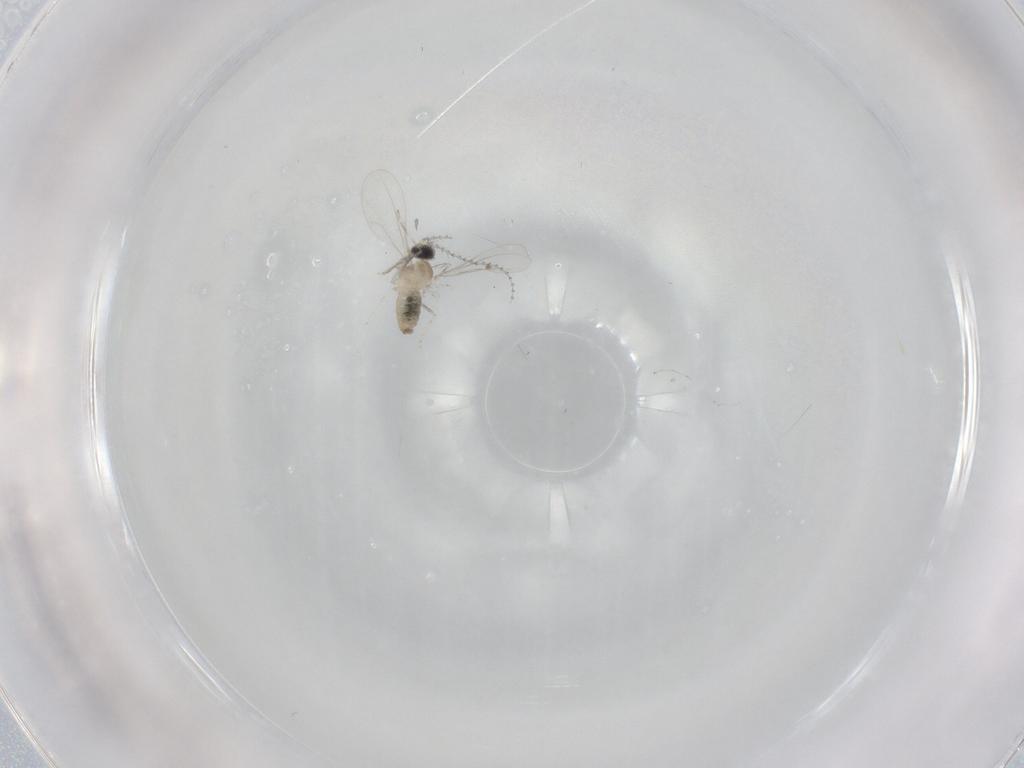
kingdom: Animalia
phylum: Arthropoda
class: Insecta
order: Diptera
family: Cecidomyiidae
